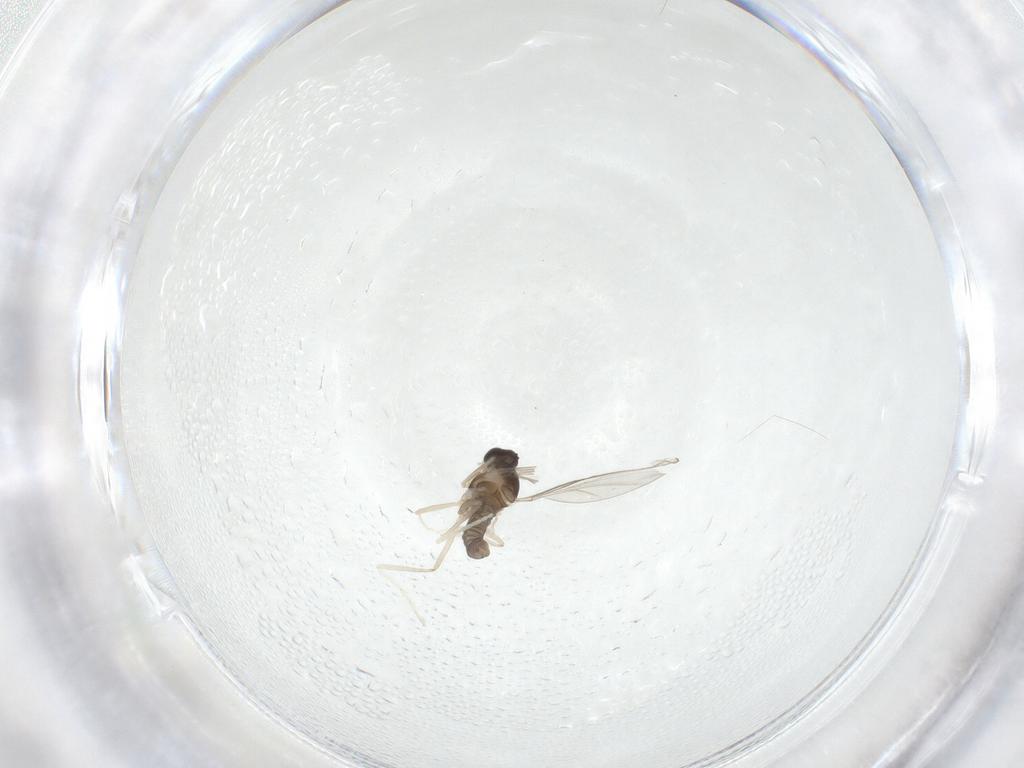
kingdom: Animalia
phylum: Arthropoda
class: Insecta
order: Diptera
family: Cecidomyiidae
